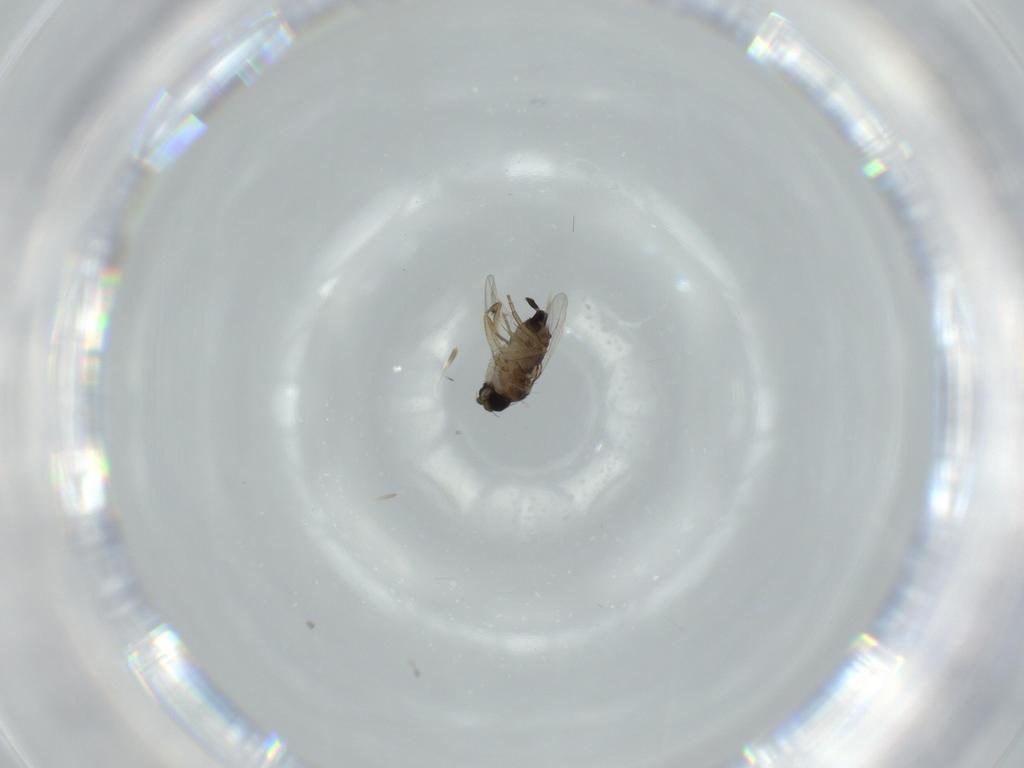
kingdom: Animalia
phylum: Arthropoda
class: Insecta
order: Diptera
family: Phoridae
